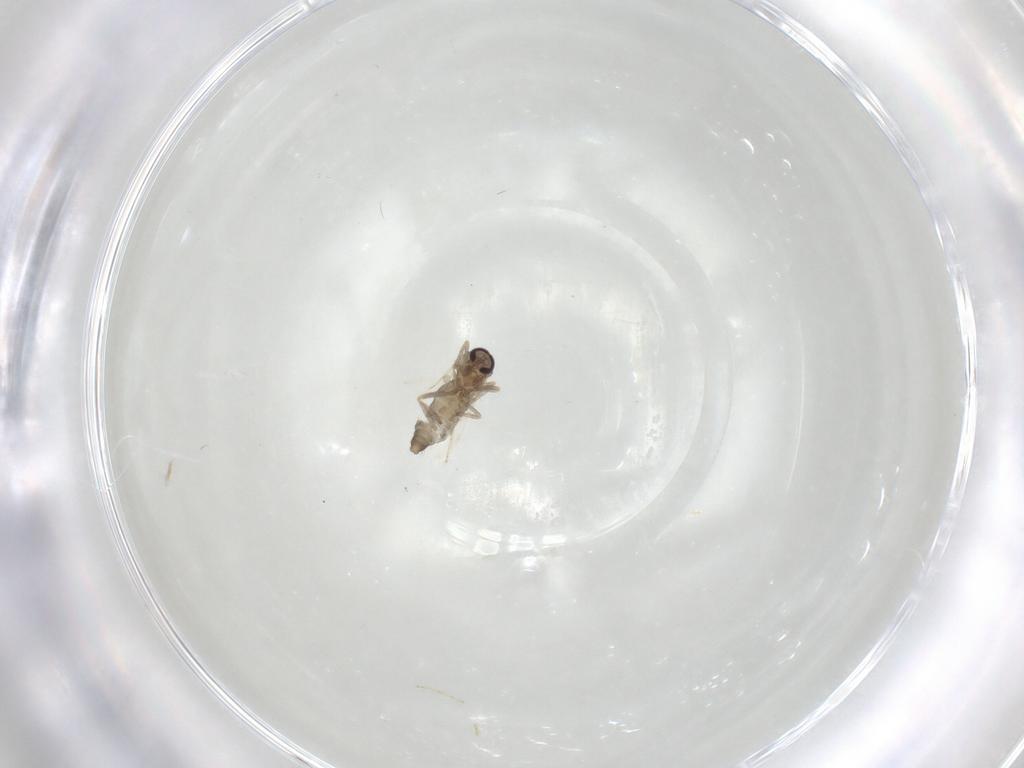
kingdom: Animalia
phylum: Arthropoda
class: Insecta
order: Diptera
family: Ceratopogonidae
